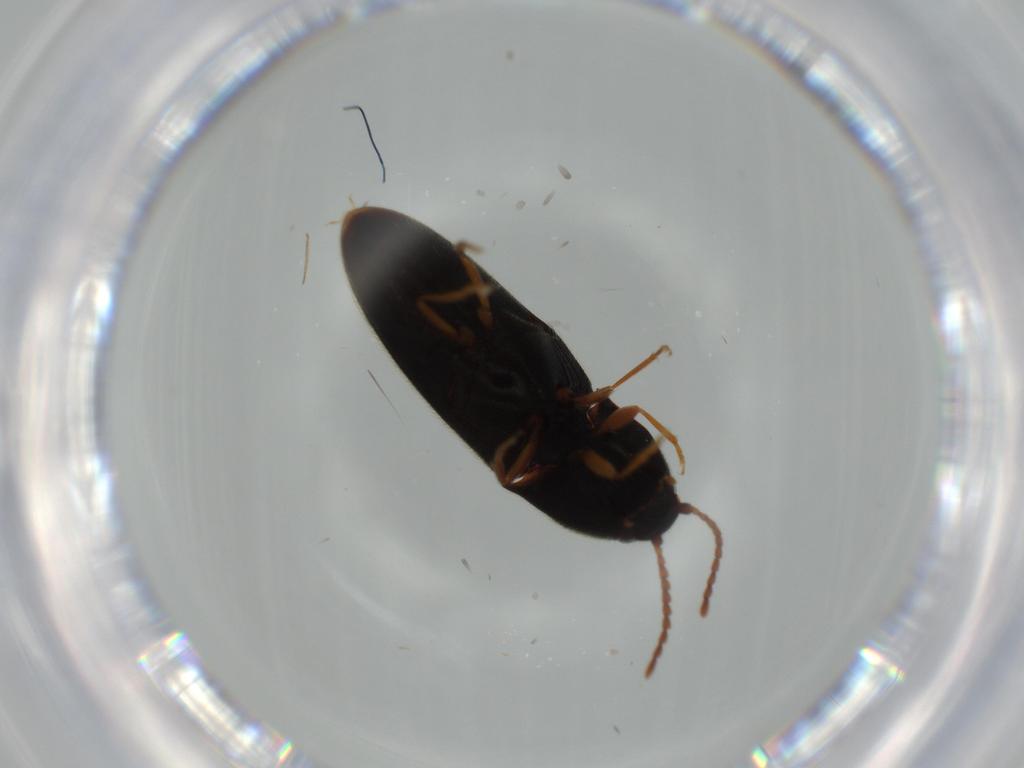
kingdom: Animalia
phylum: Arthropoda
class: Insecta
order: Coleoptera
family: Elateridae
